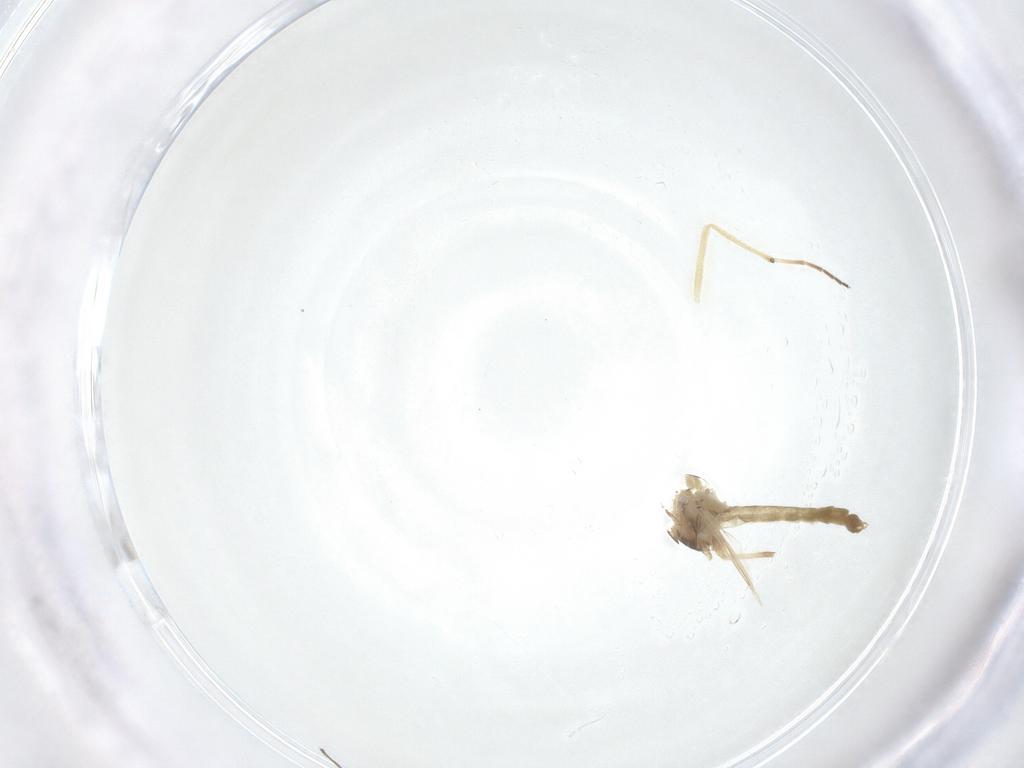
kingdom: Animalia
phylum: Arthropoda
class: Insecta
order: Diptera
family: Chironomidae
